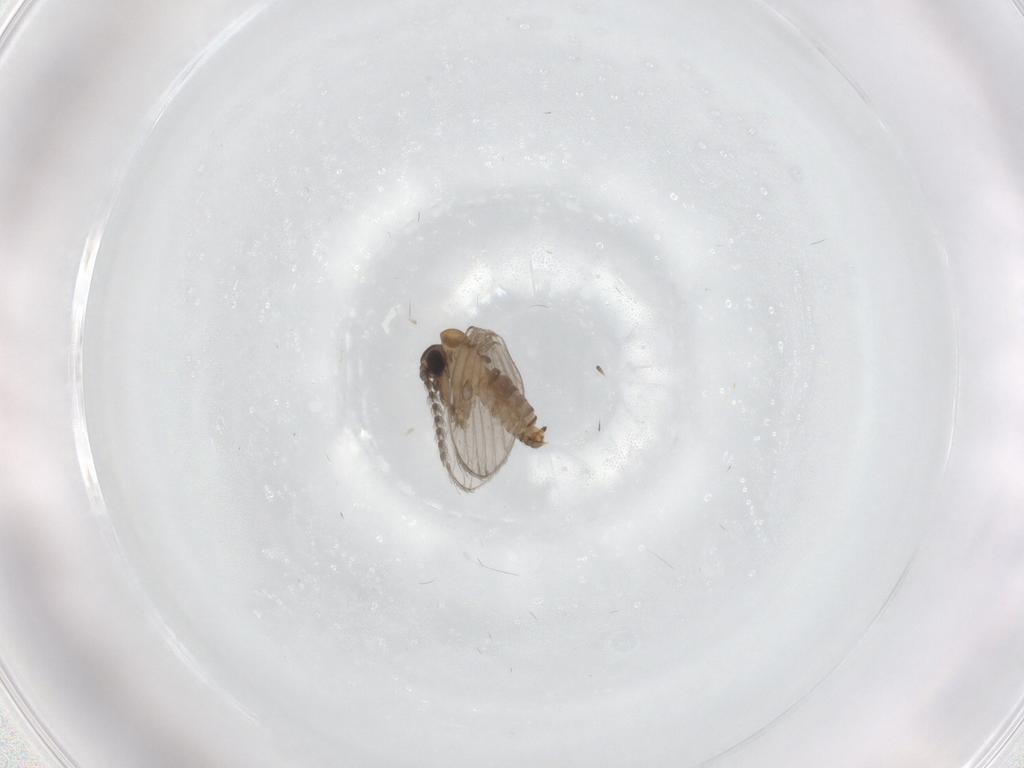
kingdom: Animalia
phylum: Arthropoda
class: Insecta
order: Diptera
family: Psychodidae
